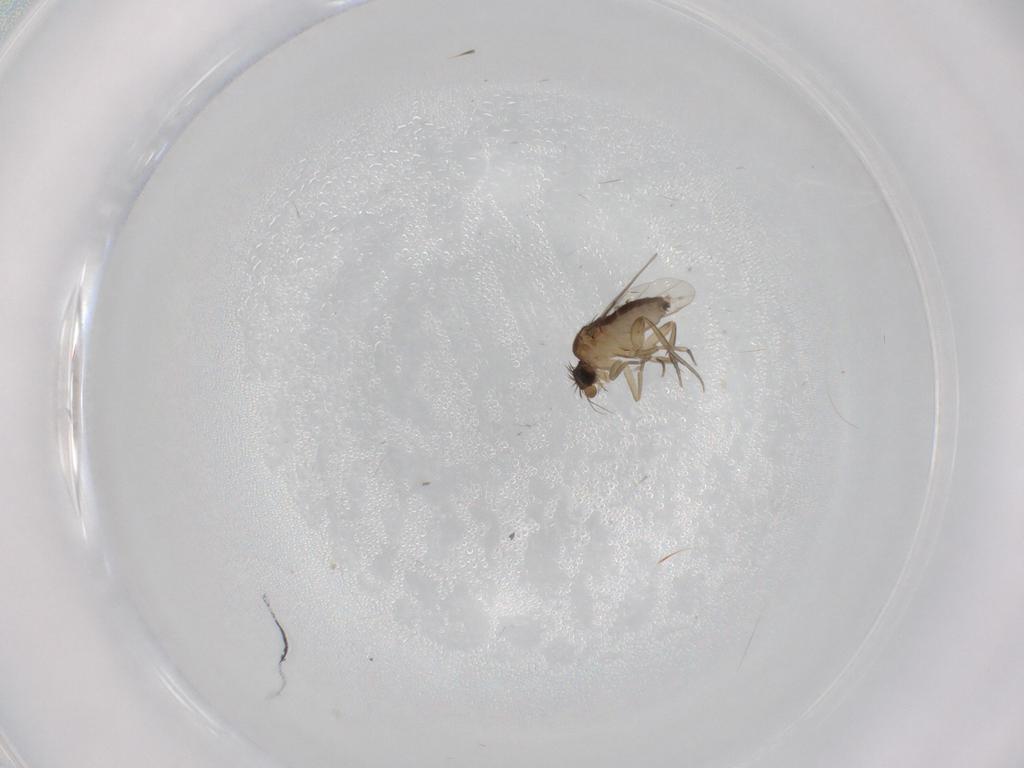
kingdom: Animalia
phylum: Arthropoda
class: Insecta
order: Diptera
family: Phoridae
